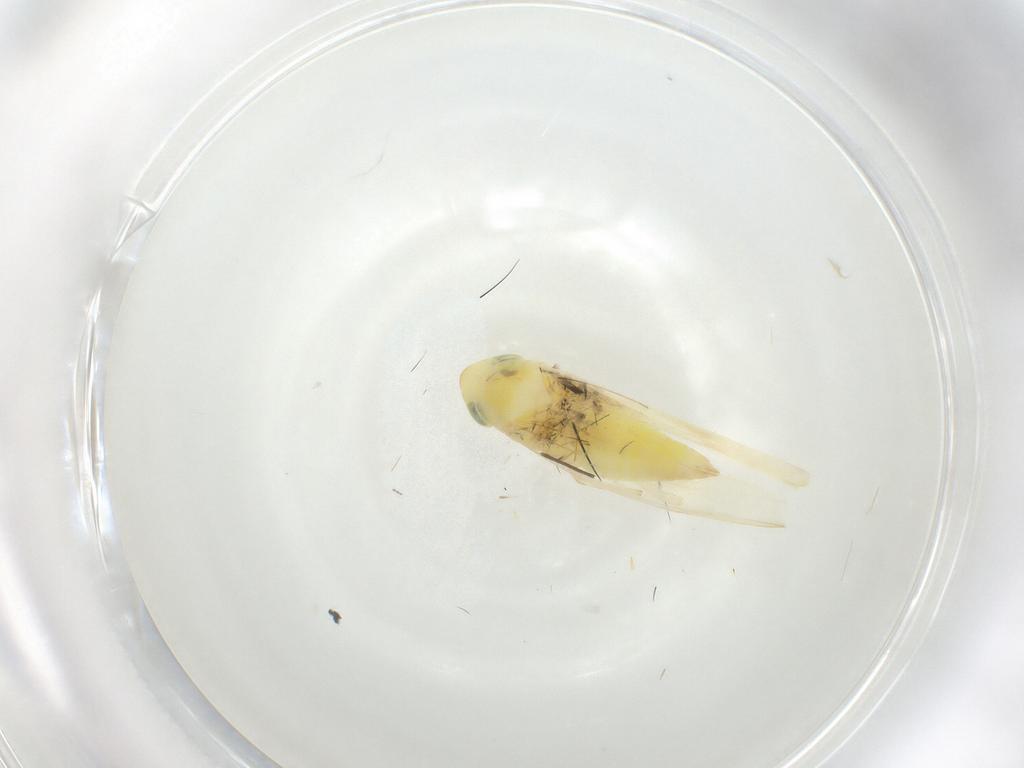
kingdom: Animalia
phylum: Arthropoda
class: Insecta
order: Hemiptera
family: Cicadellidae
